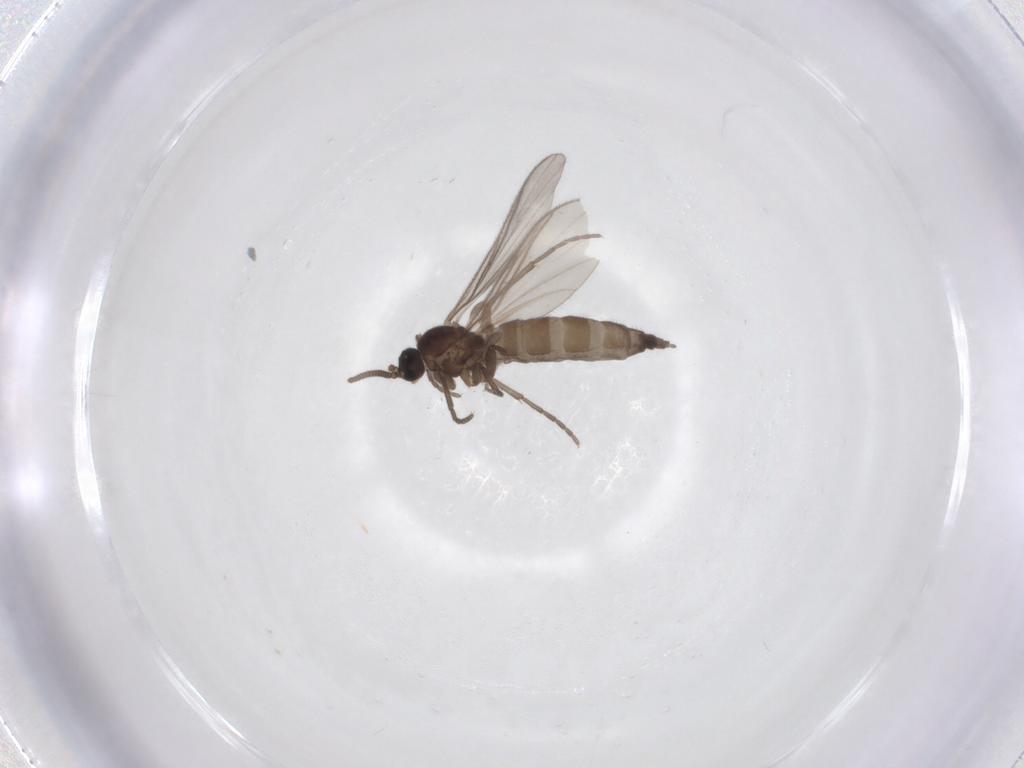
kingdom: Animalia
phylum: Arthropoda
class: Insecta
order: Diptera
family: Sciaridae
